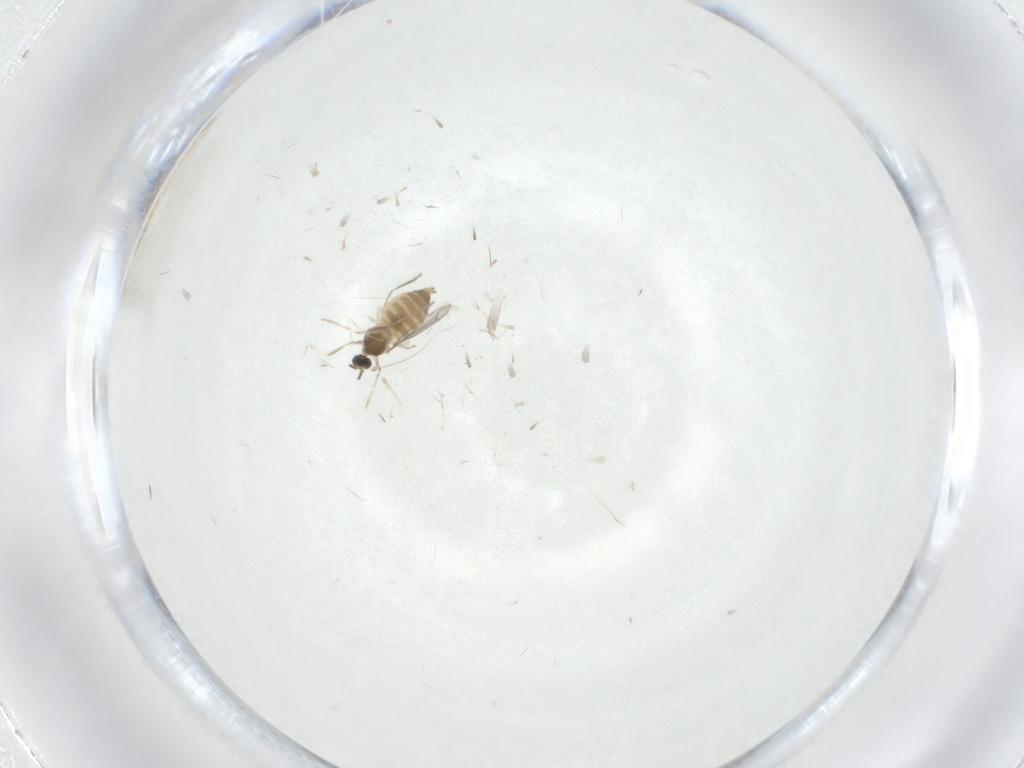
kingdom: Animalia
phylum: Arthropoda
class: Insecta
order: Diptera
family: Cecidomyiidae
